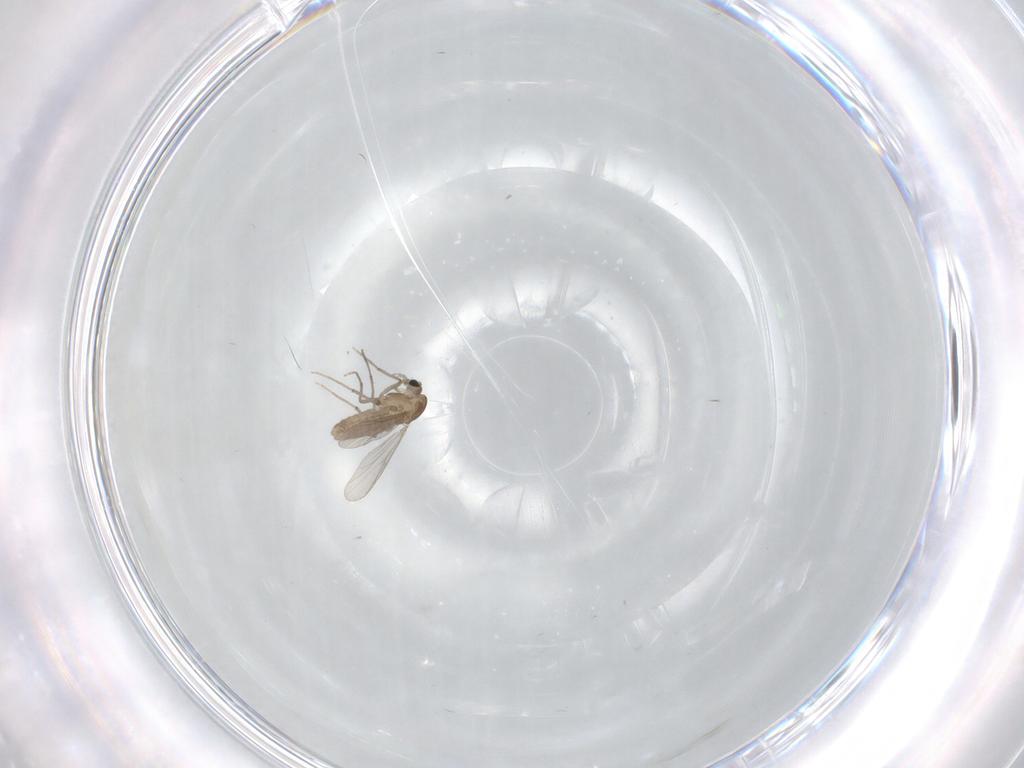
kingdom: Animalia
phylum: Arthropoda
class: Insecta
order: Diptera
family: Chironomidae
